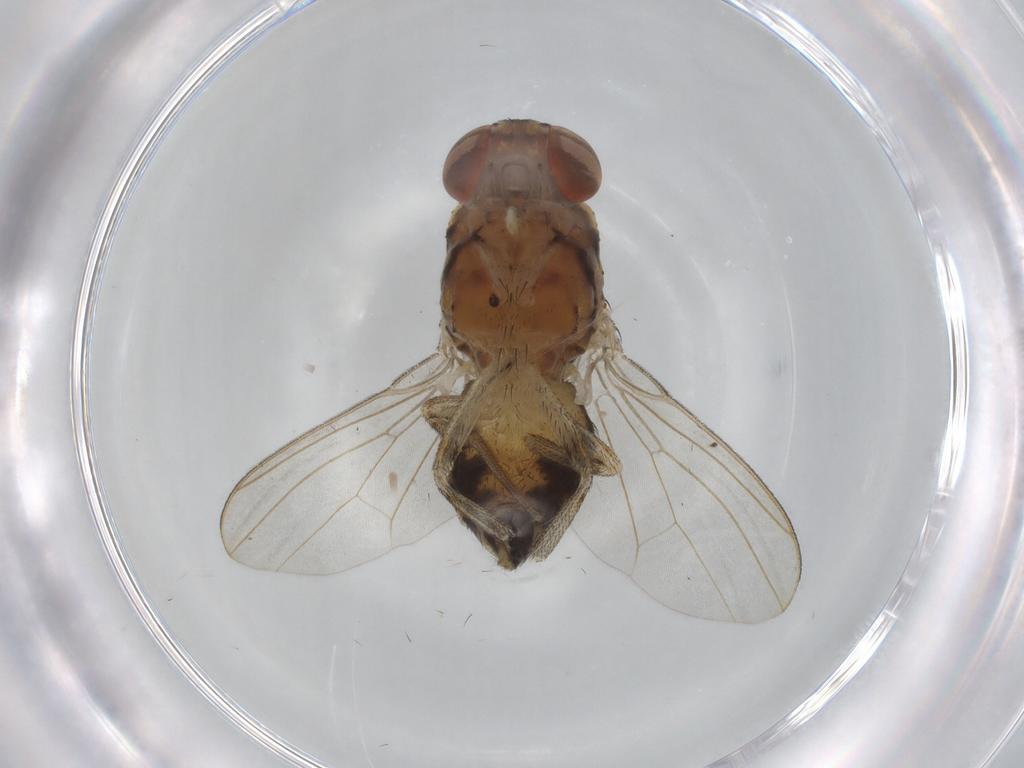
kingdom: Animalia
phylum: Arthropoda
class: Insecta
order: Diptera
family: Drosophilidae
